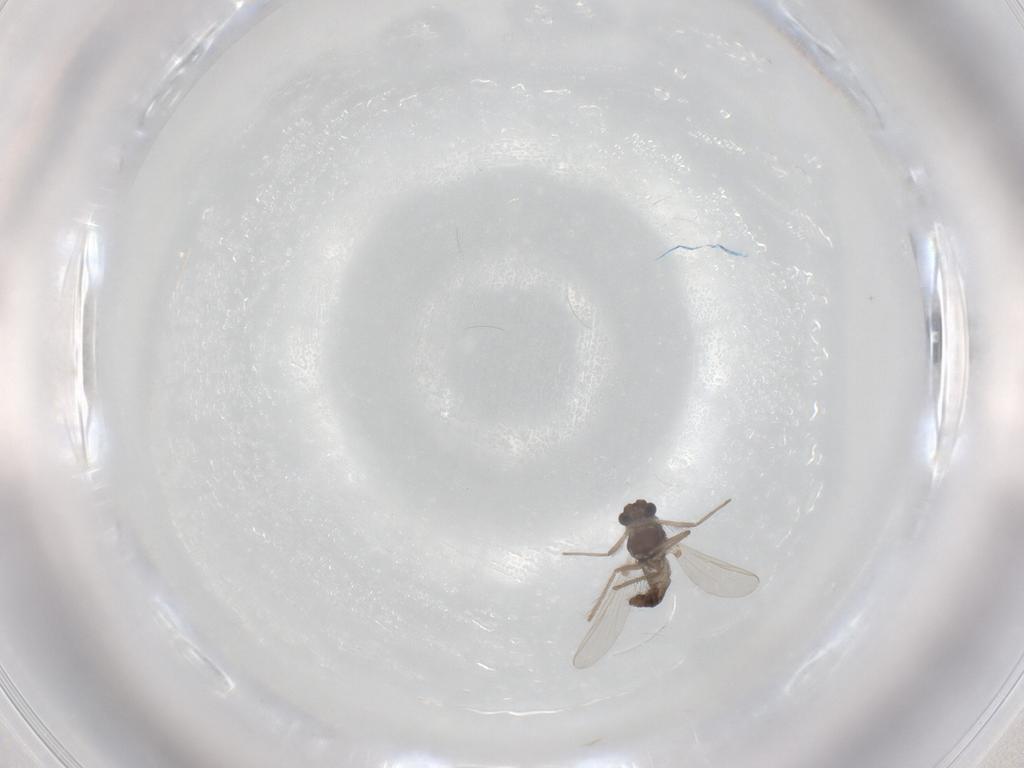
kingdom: Animalia
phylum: Arthropoda
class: Insecta
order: Diptera
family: Chironomidae
